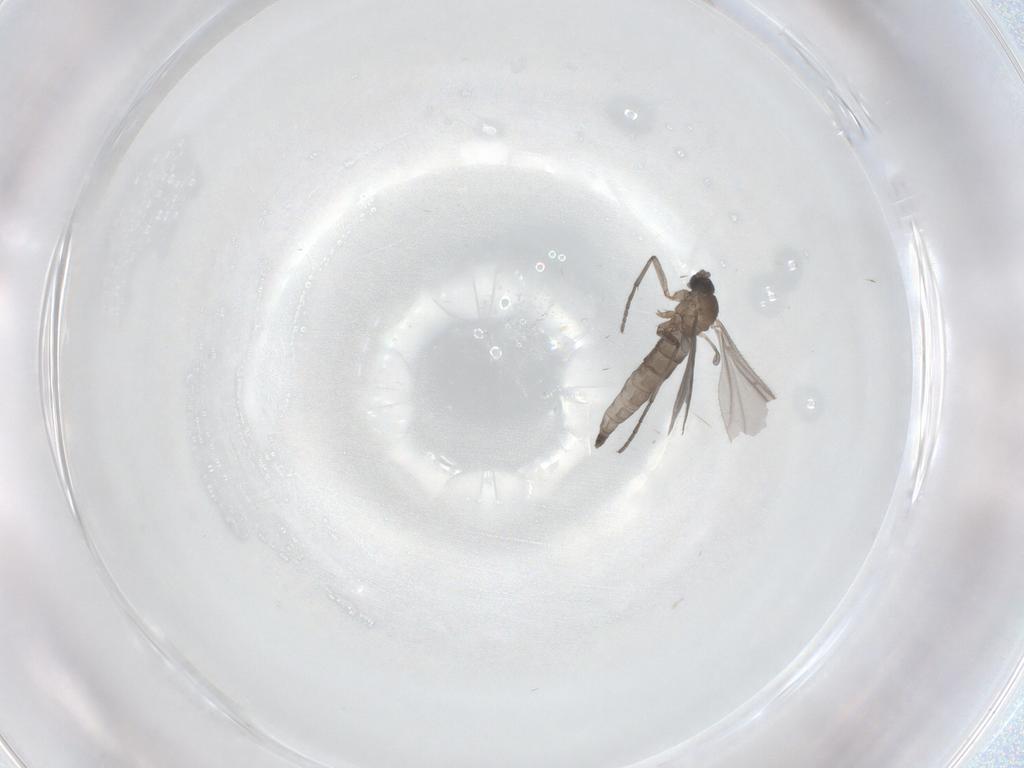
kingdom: Animalia
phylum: Arthropoda
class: Insecta
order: Diptera
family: Sciaridae
